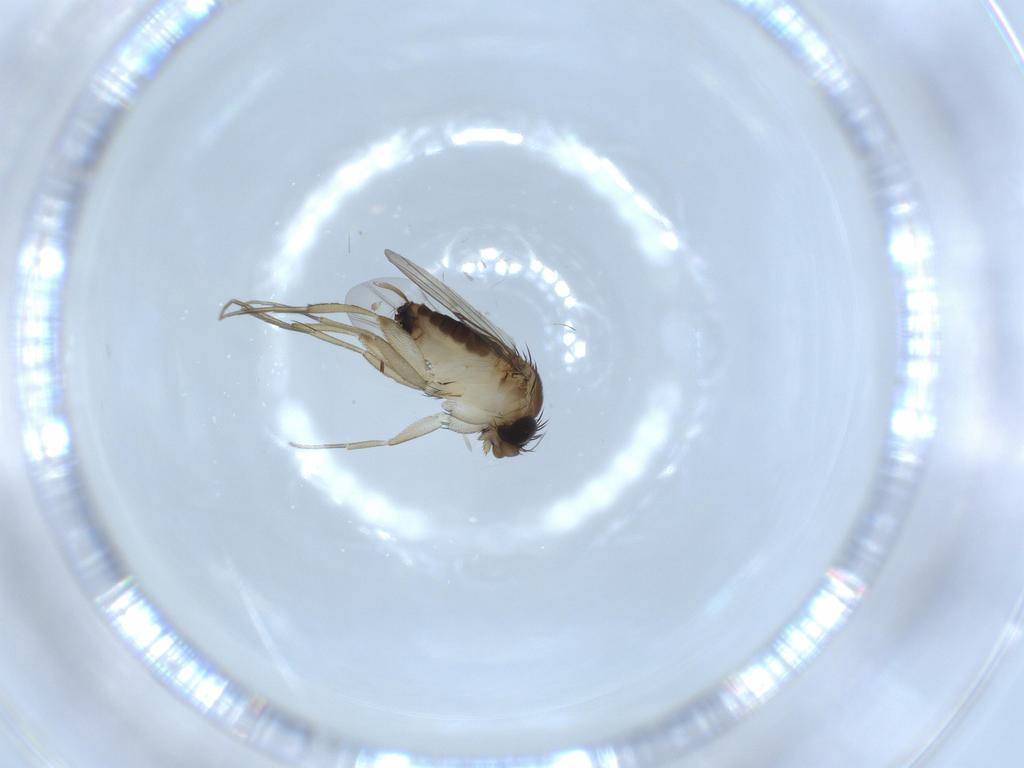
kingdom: Animalia
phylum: Arthropoda
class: Insecta
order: Diptera
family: Phoridae
